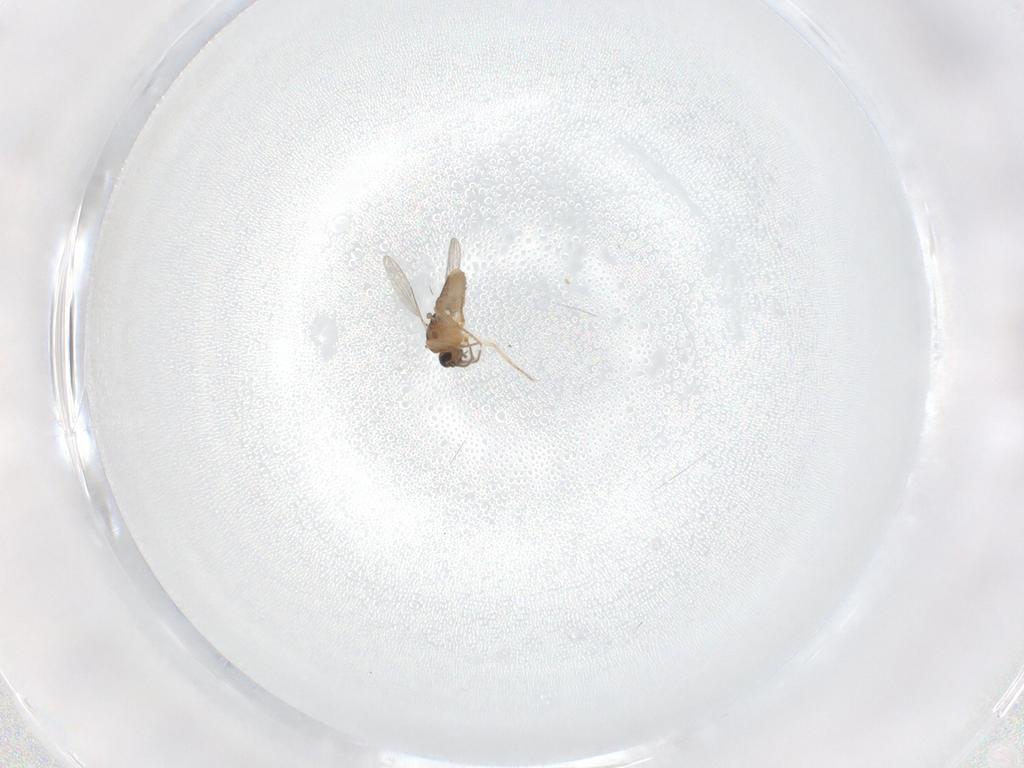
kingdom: Animalia
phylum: Arthropoda
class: Insecta
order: Diptera
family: Ceratopogonidae
